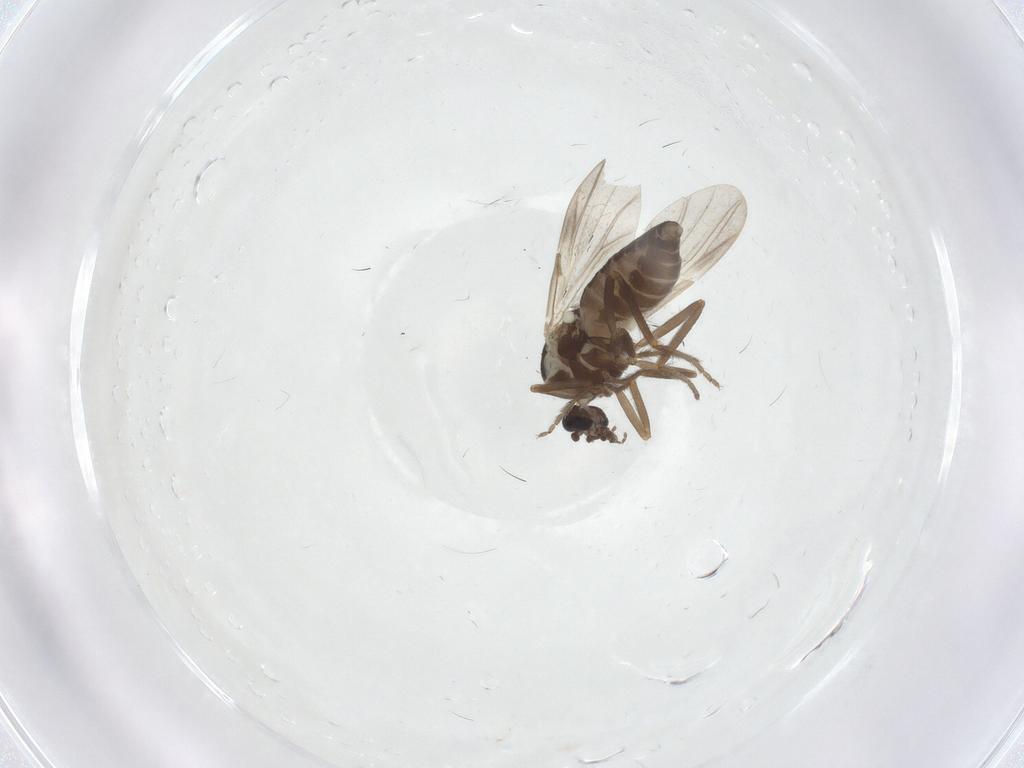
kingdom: Animalia
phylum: Arthropoda
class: Insecta
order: Diptera
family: Ceratopogonidae
